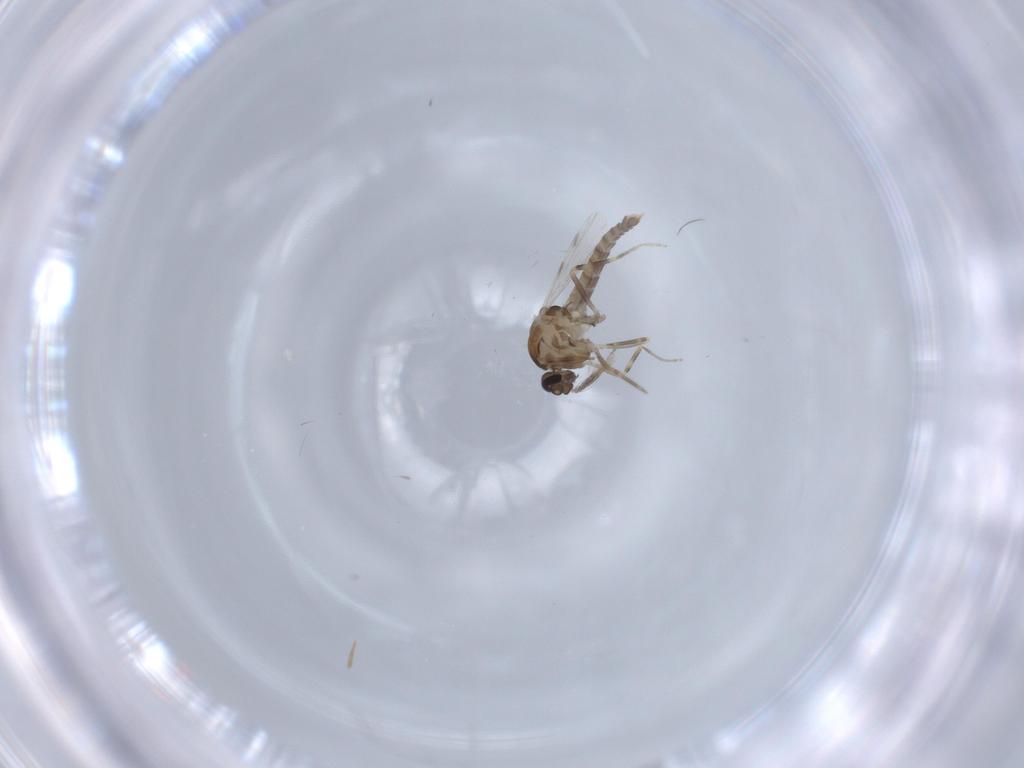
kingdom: Animalia
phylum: Arthropoda
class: Insecta
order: Diptera
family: Ceratopogonidae
